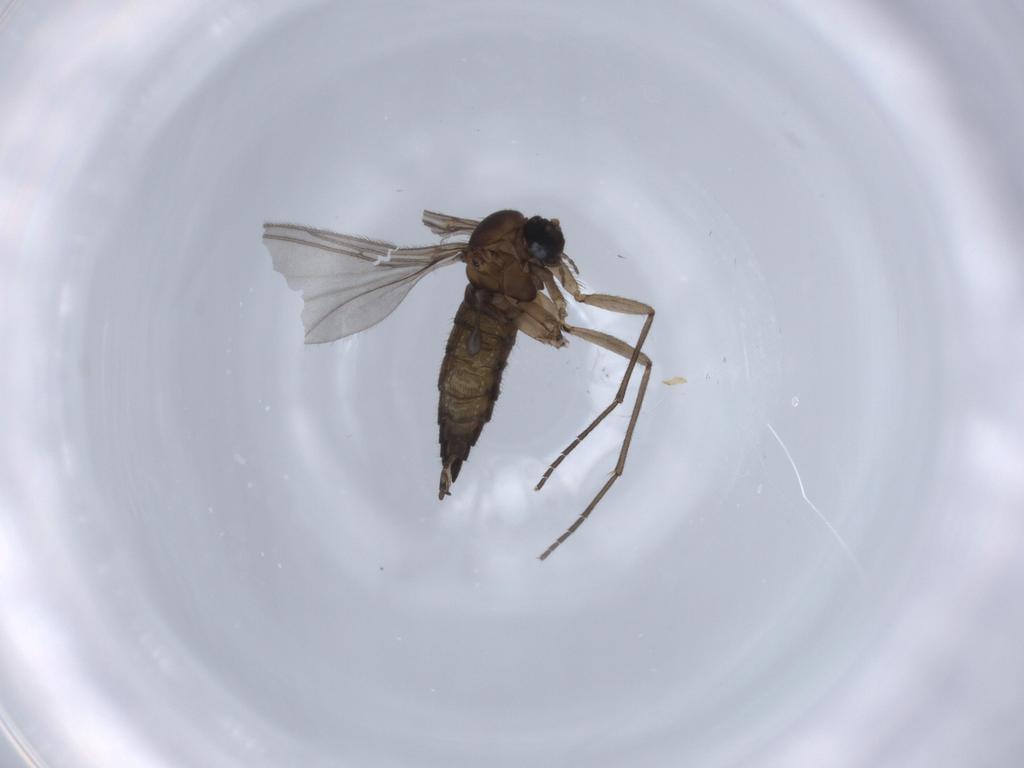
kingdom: Animalia
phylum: Arthropoda
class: Insecta
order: Diptera
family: Sciaridae
